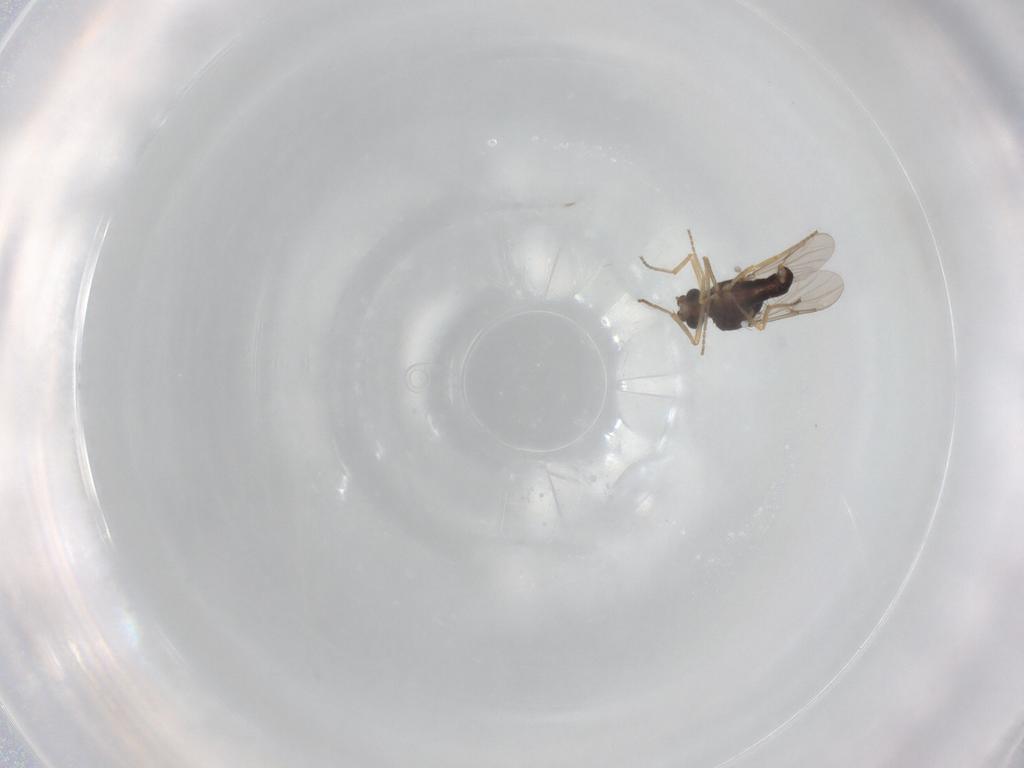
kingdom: Animalia
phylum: Arthropoda
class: Insecta
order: Diptera
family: Ceratopogonidae
